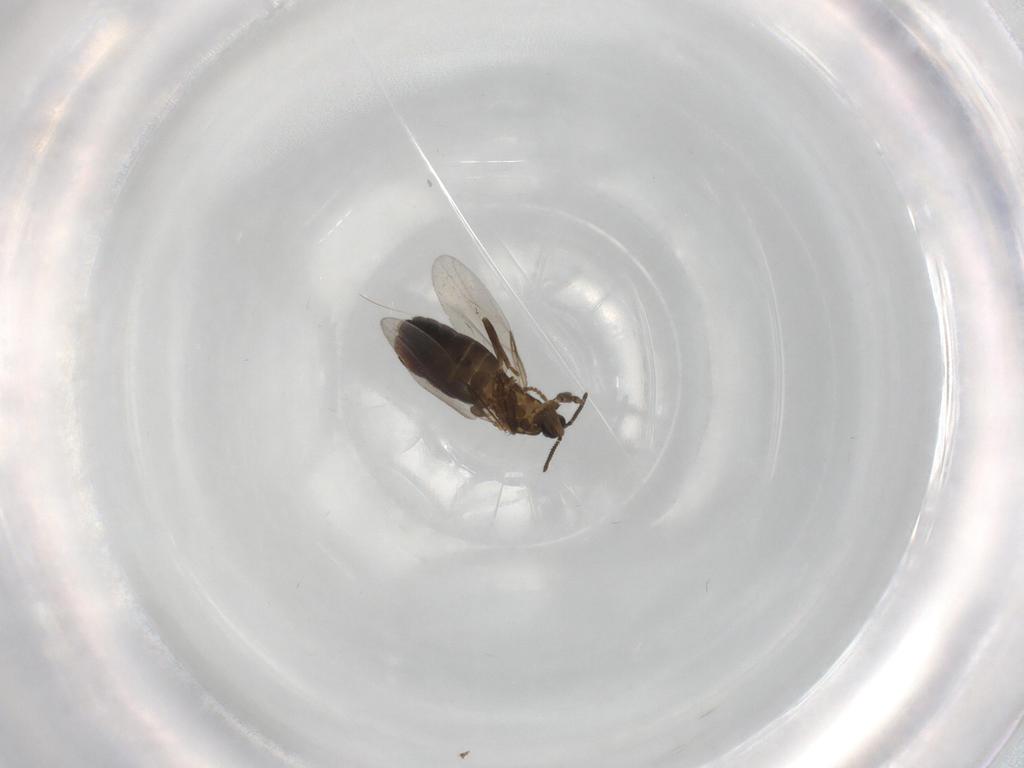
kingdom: Animalia
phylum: Arthropoda
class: Insecta
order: Diptera
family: Scatopsidae
